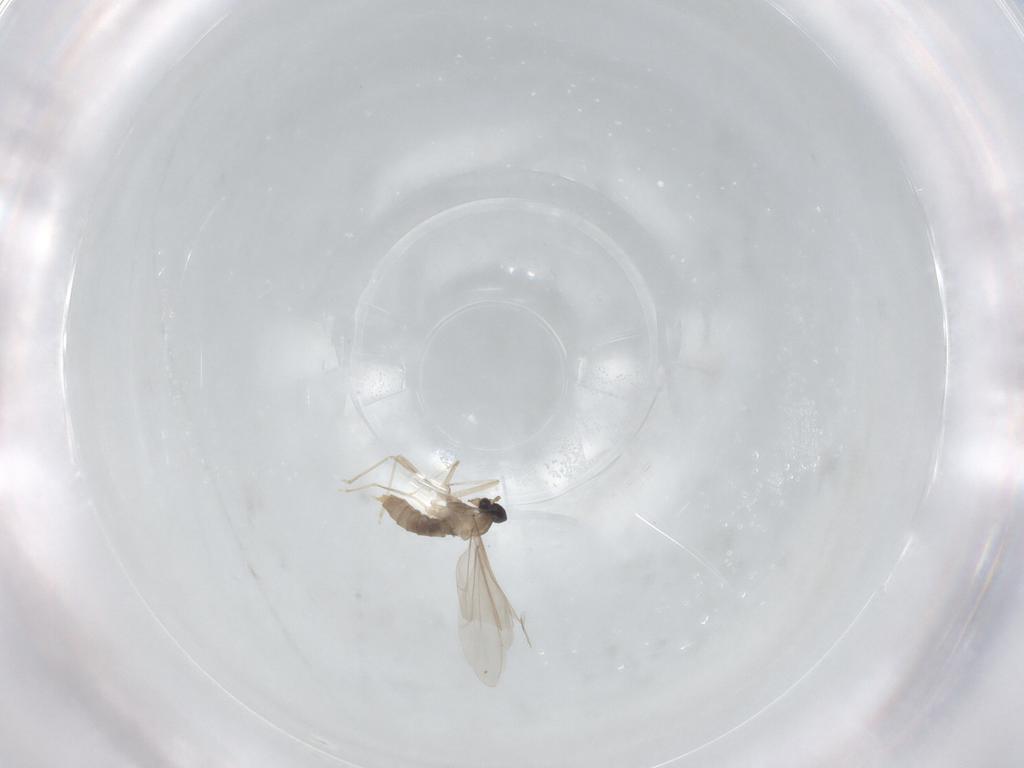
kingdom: Animalia
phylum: Arthropoda
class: Insecta
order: Diptera
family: Cecidomyiidae
